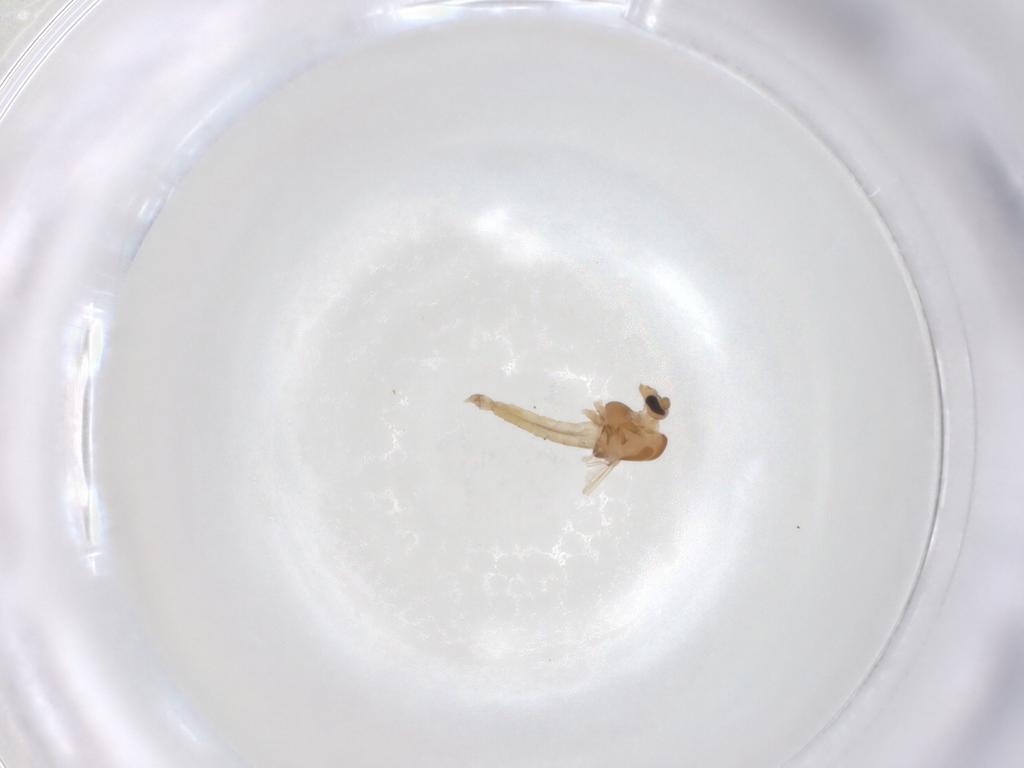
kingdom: Animalia
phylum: Arthropoda
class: Insecta
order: Diptera
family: Chironomidae
